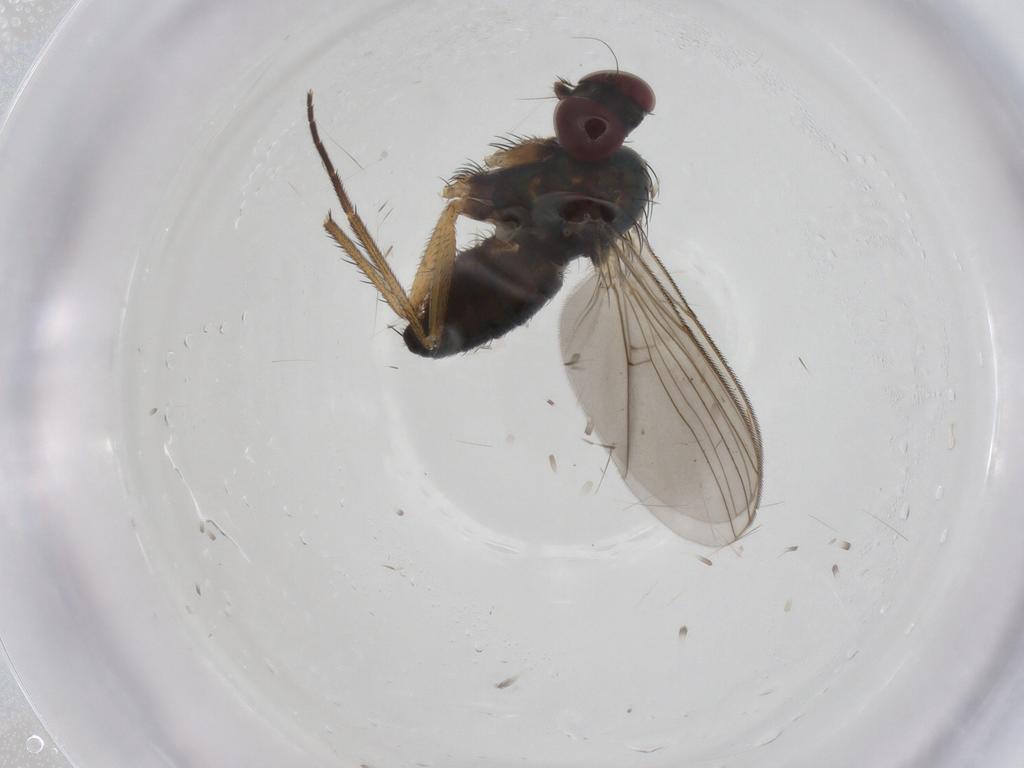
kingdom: Animalia
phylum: Arthropoda
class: Insecta
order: Diptera
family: Dolichopodidae
